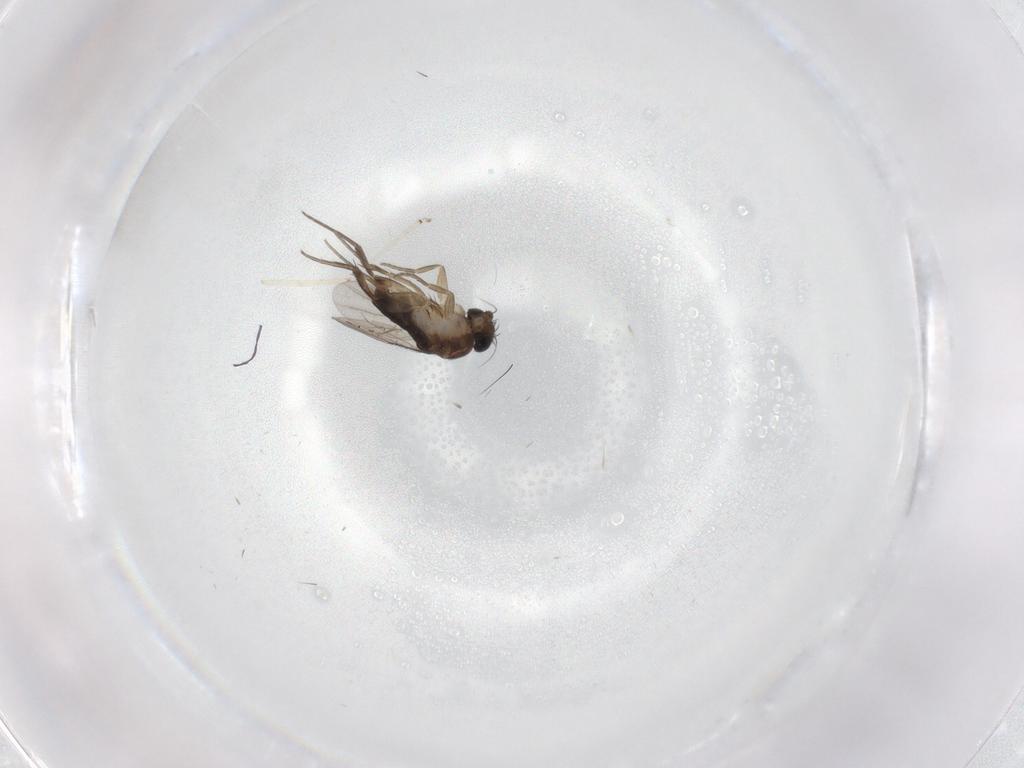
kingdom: Animalia
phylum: Arthropoda
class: Insecta
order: Diptera
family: Phoridae
